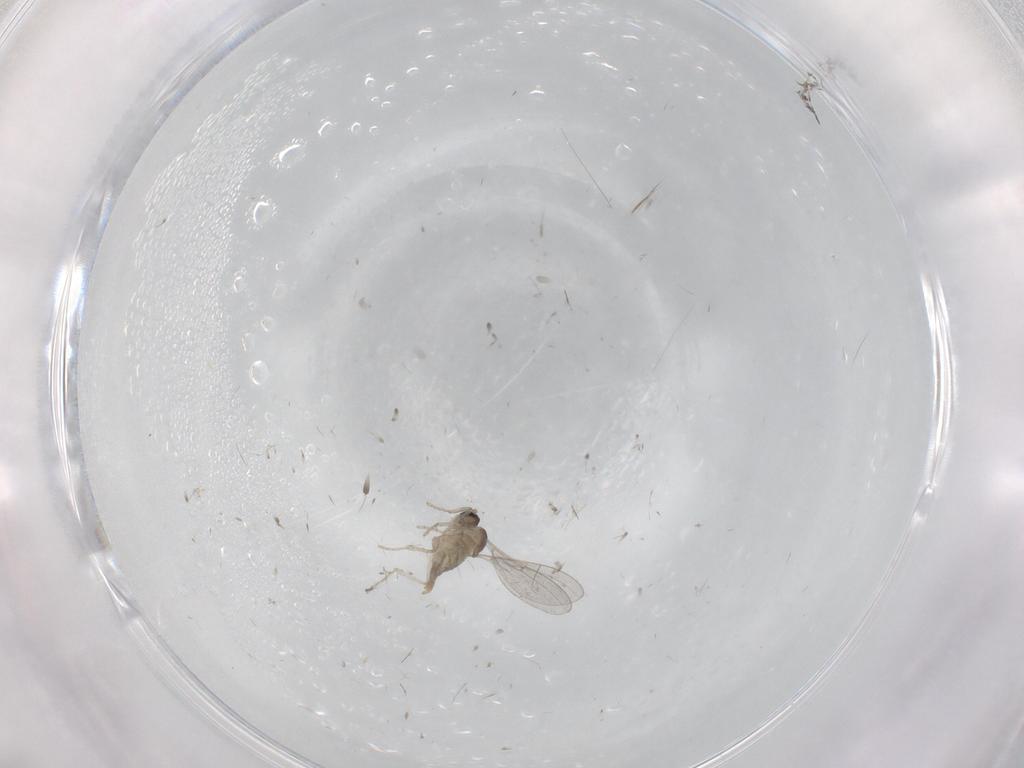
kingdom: Animalia
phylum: Arthropoda
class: Insecta
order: Diptera
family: Cecidomyiidae
